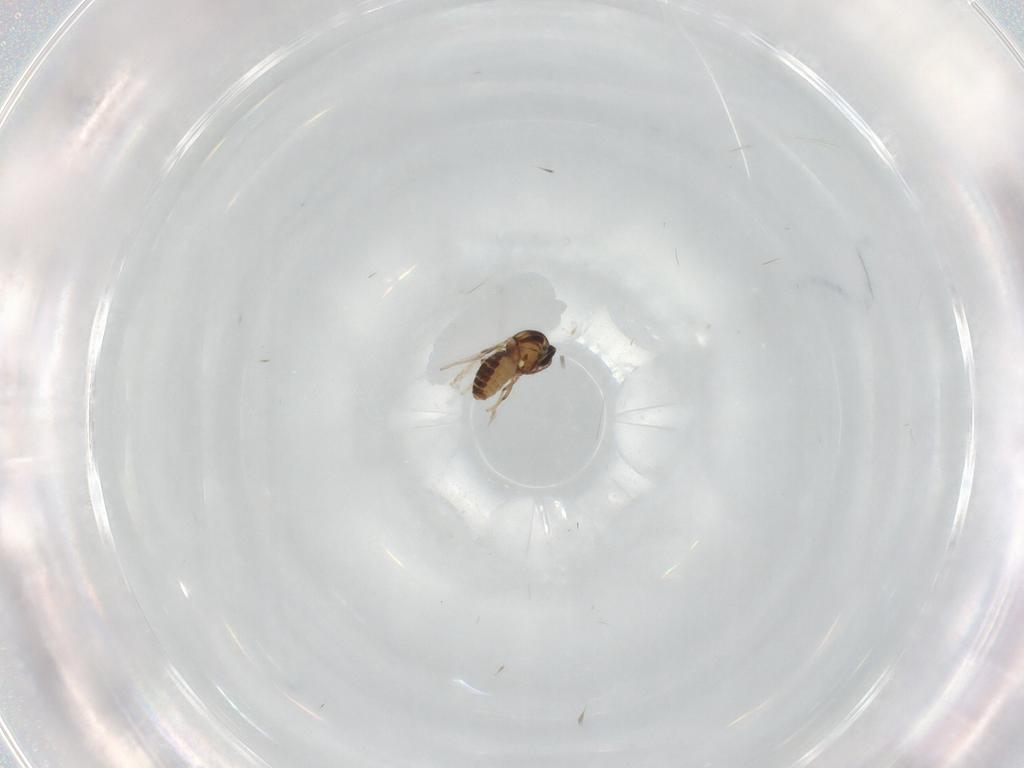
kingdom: Animalia
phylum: Arthropoda
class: Insecta
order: Diptera
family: Ceratopogonidae
